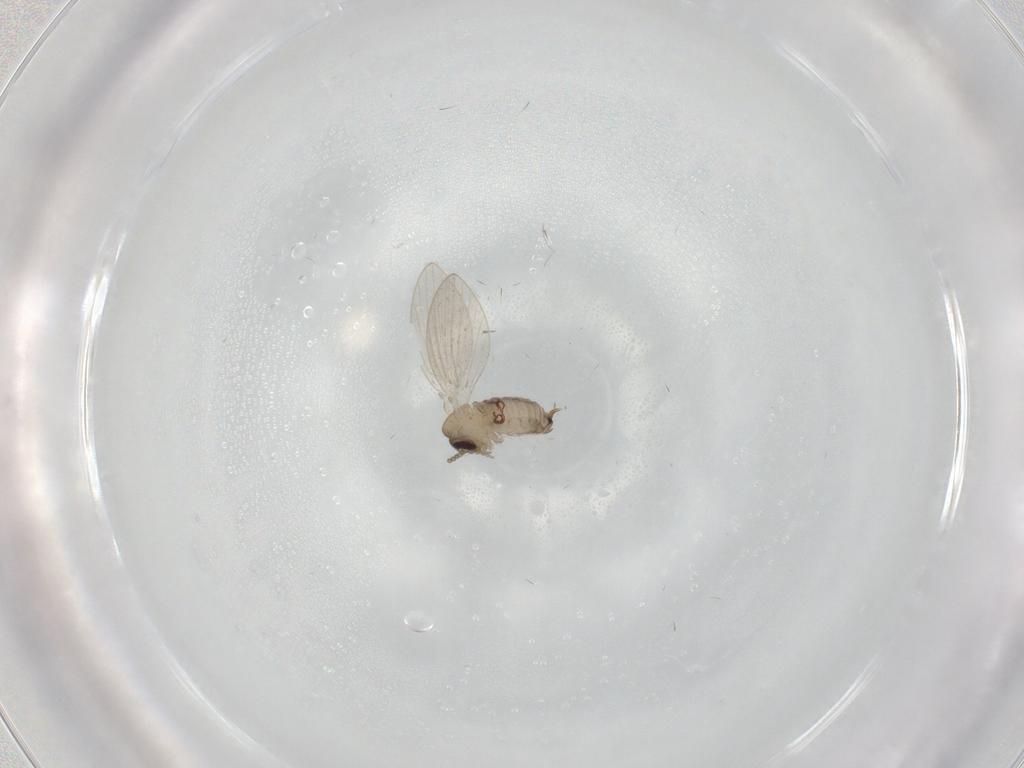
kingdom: Animalia
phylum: Arthropoda
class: Insecta
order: Diptera
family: Psychodidae
